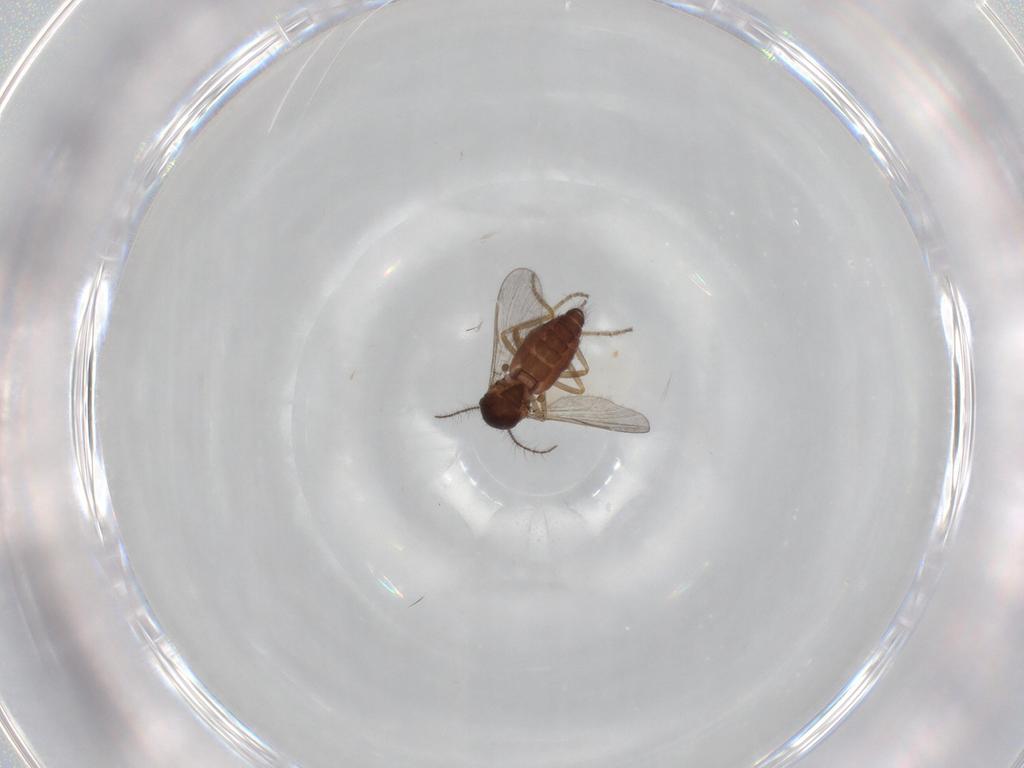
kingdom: Animalia
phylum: Arthropoda
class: Insecta
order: Diptera
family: Ceratopogonidae
